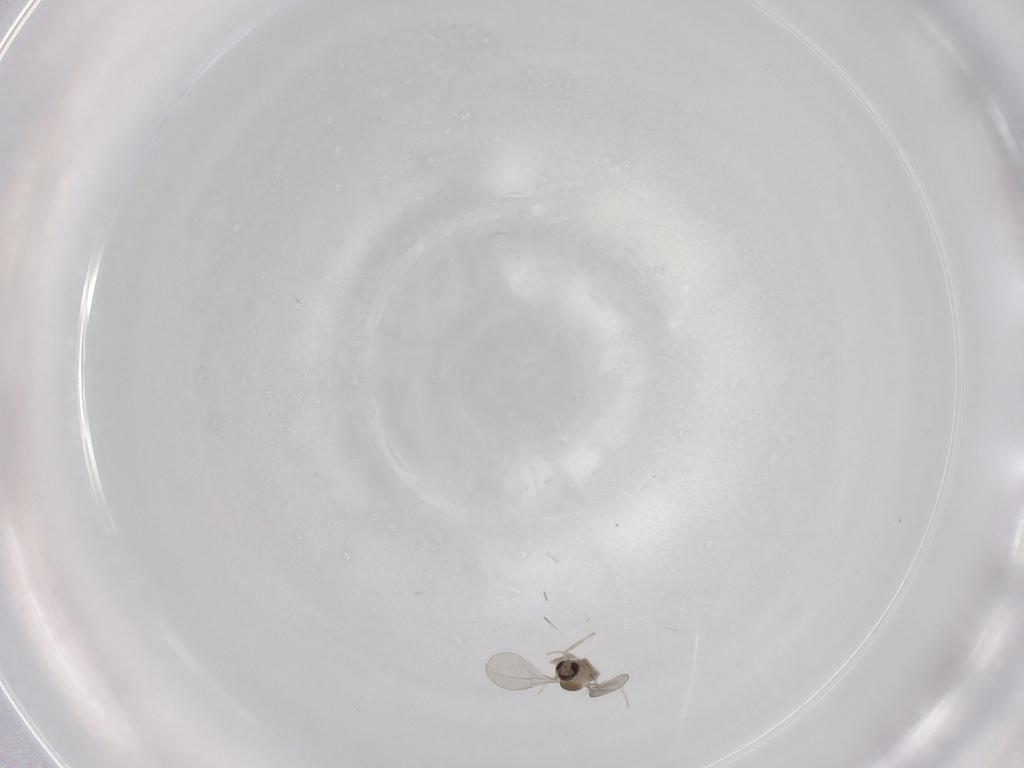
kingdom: Animalia
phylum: Arthropoda
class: Insecta
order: Diptera
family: Cecidomyiidae
